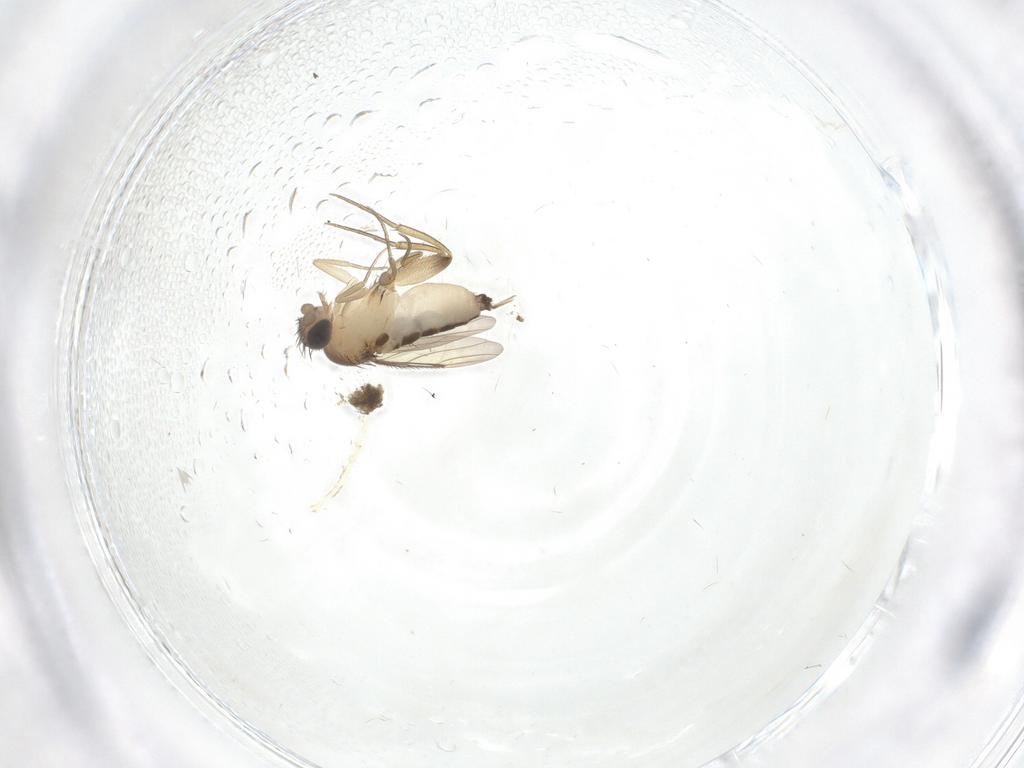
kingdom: Animalia
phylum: Arthropoda
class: Insecta
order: Diptera
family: Phoridae
